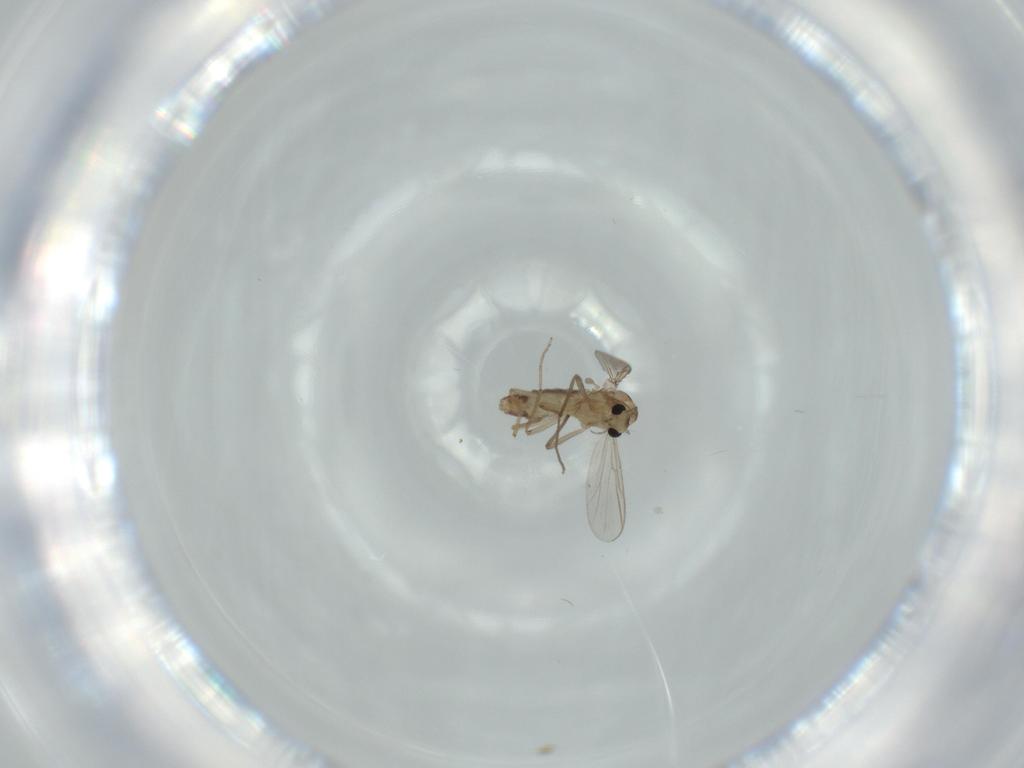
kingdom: Animalia
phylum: Arthropoda
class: Insecta
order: Diptera
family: Chironomidae
